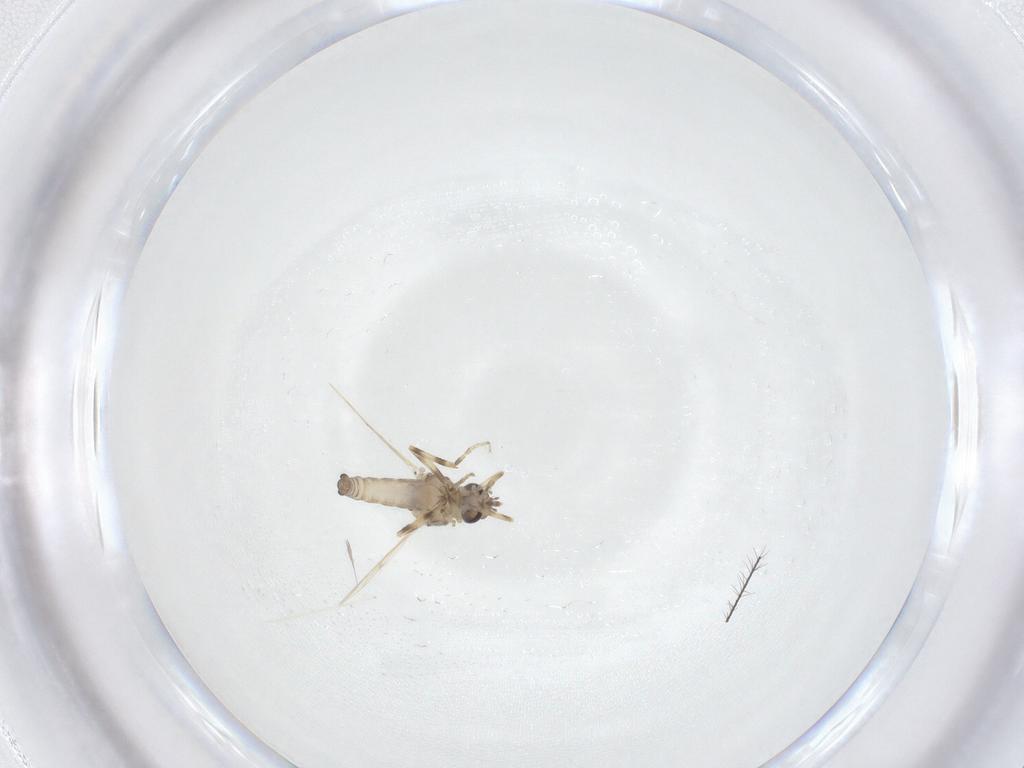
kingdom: Animalia
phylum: Arthropoda
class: Insecta
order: Diptera
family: Ceratopogonidae
